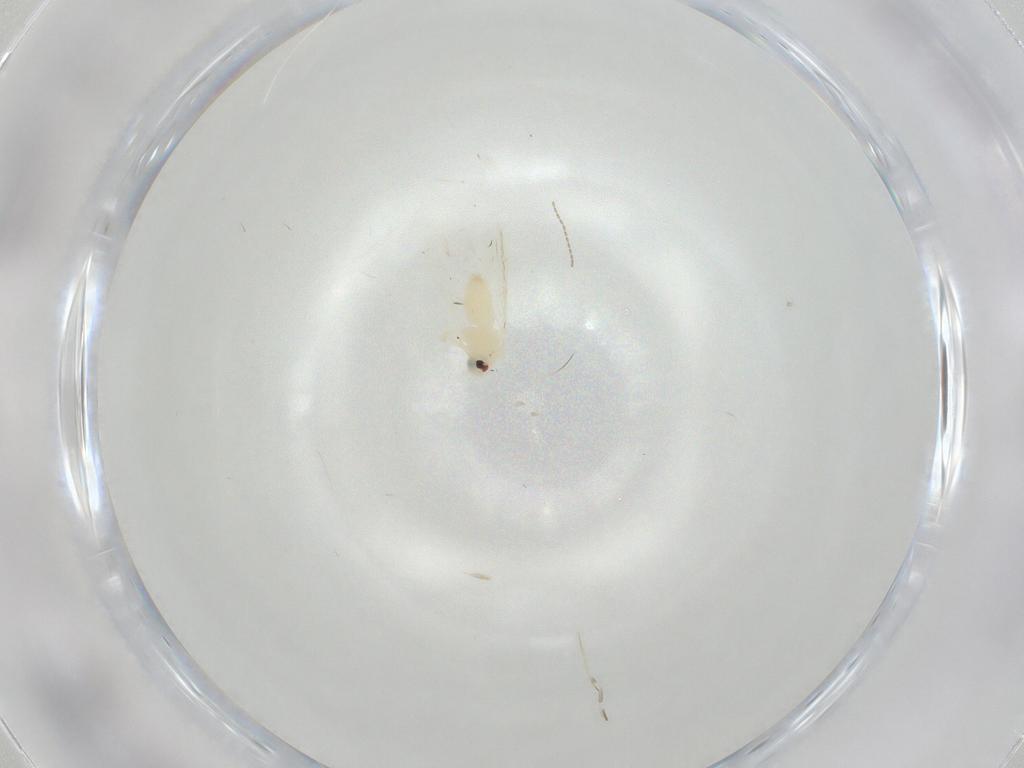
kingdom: Animalia
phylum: Arthropoda
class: Insecta
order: Hemiptera
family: Aleyrodidae
